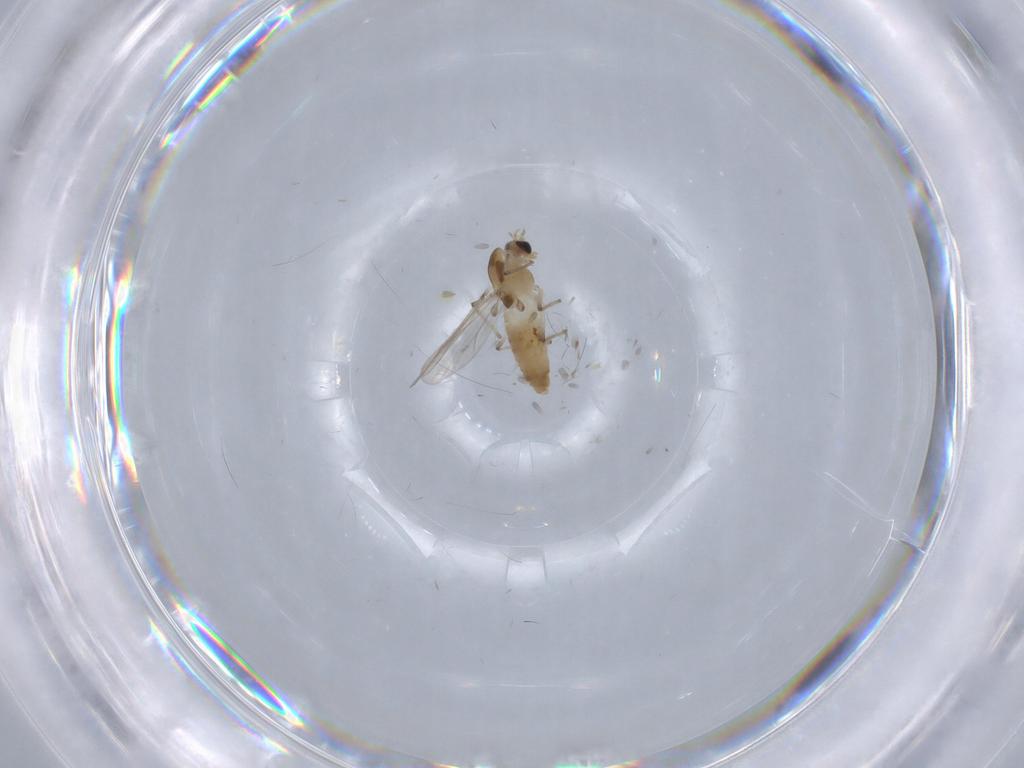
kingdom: Animalia
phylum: Arthropoda
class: Insecta
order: Diptera
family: Chironomidae
